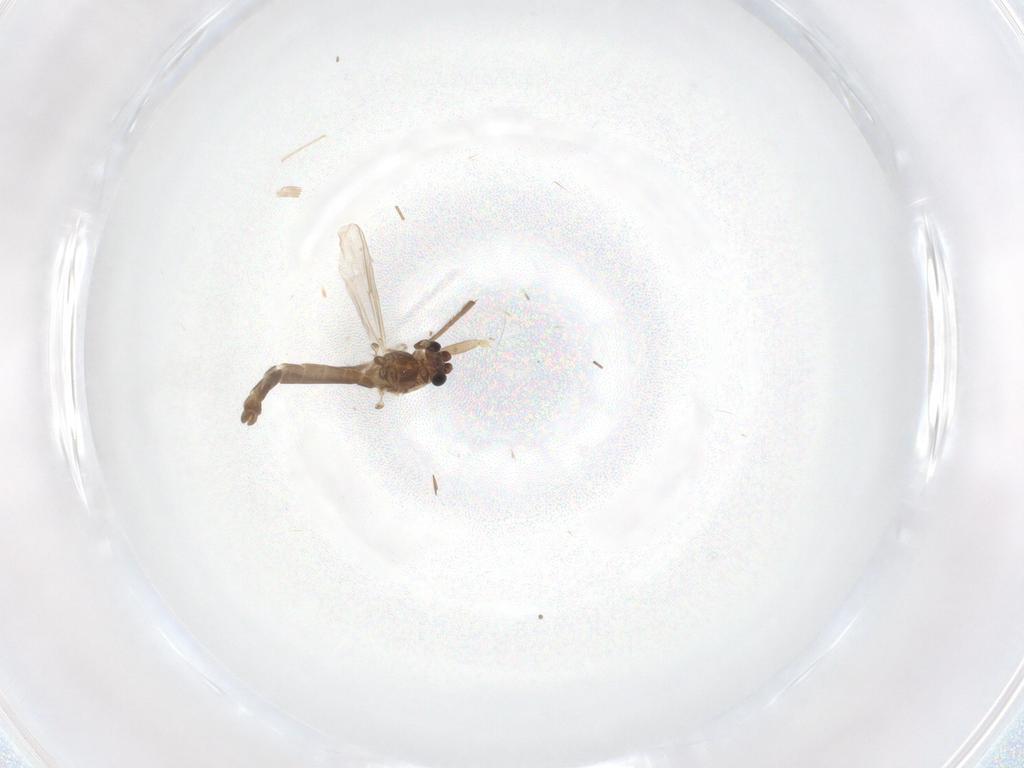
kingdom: Animalia
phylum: Arthropoda
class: Insecta
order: Diptera
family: Chironomidae
